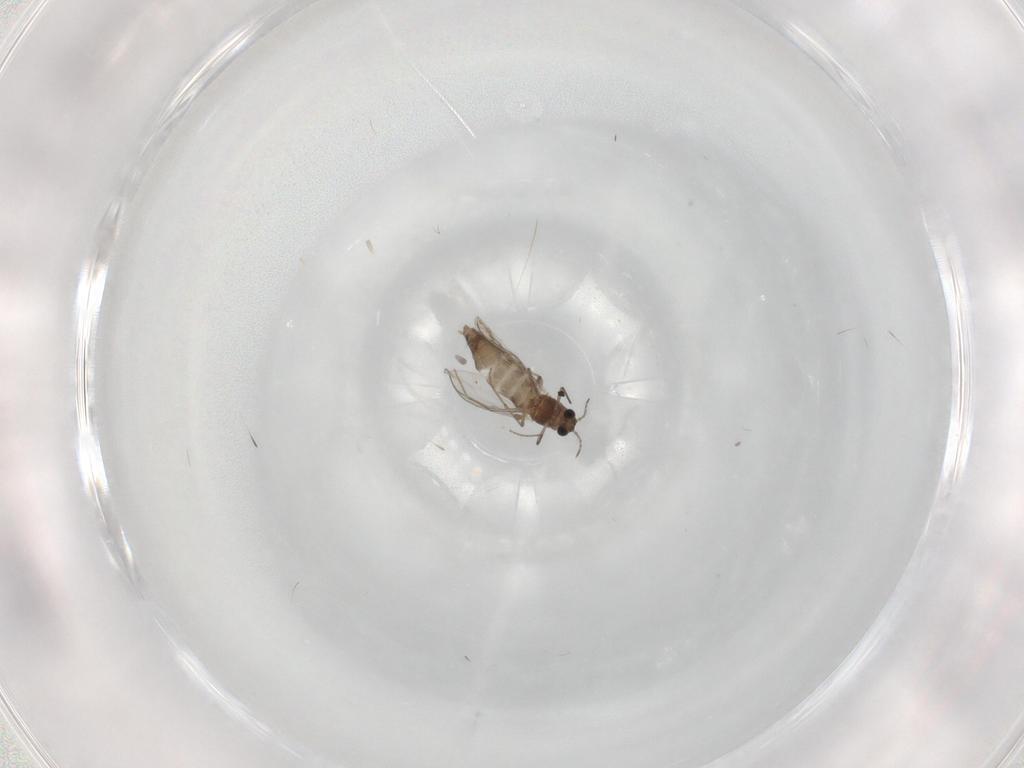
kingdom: Animalia
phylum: Arthropoda
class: Insecta
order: Diptera
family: Chironomidae
